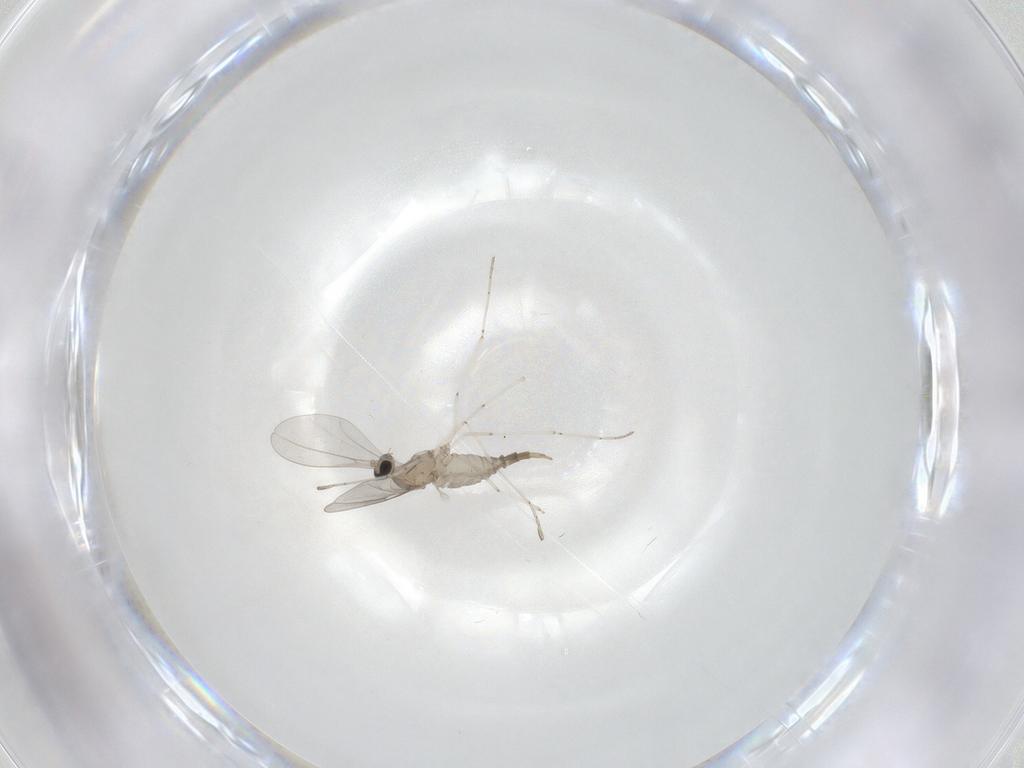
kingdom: Animalia
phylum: Arthropoda
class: Insecta
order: Diptera
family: Cecidomyiidae
